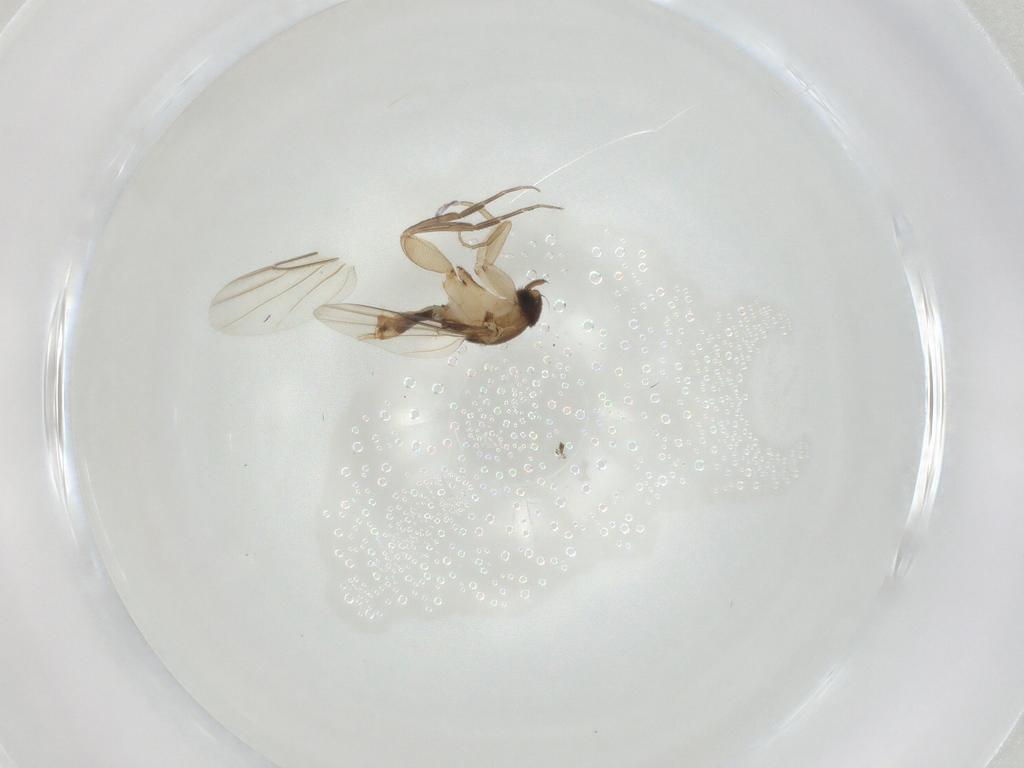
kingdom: Animalia
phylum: Arthropoda
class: Insecta
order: Diptera
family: Phoridae
